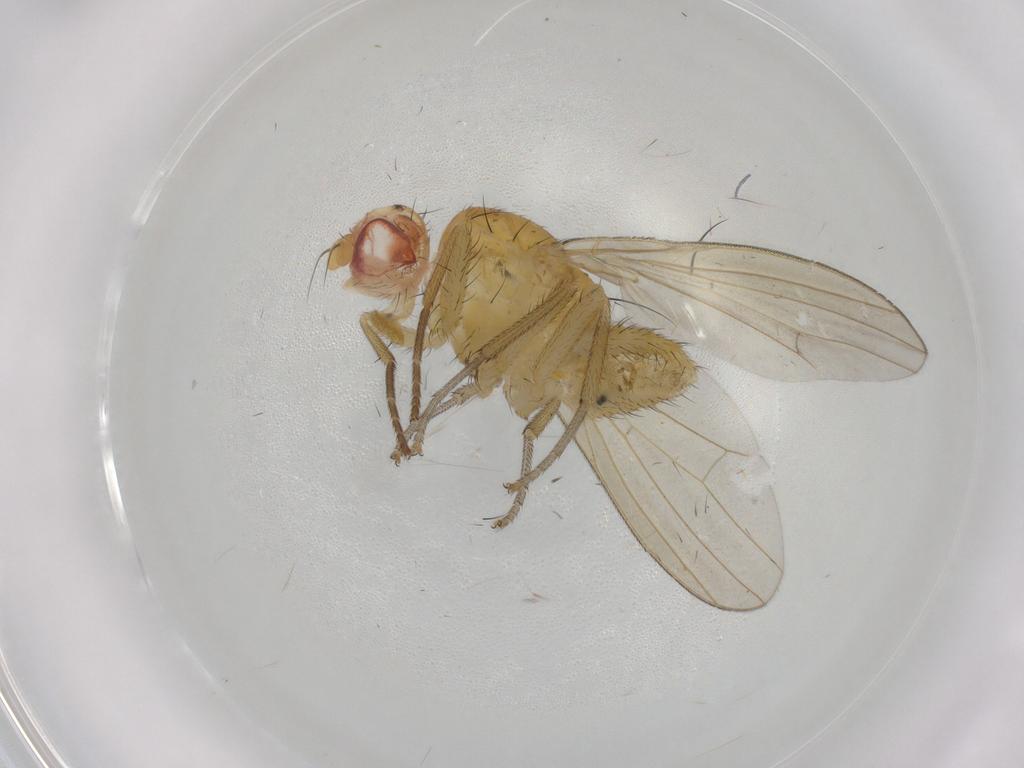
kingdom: Animalia
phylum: Arthropoda
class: Insecta
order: Diptera
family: Tipulidae
